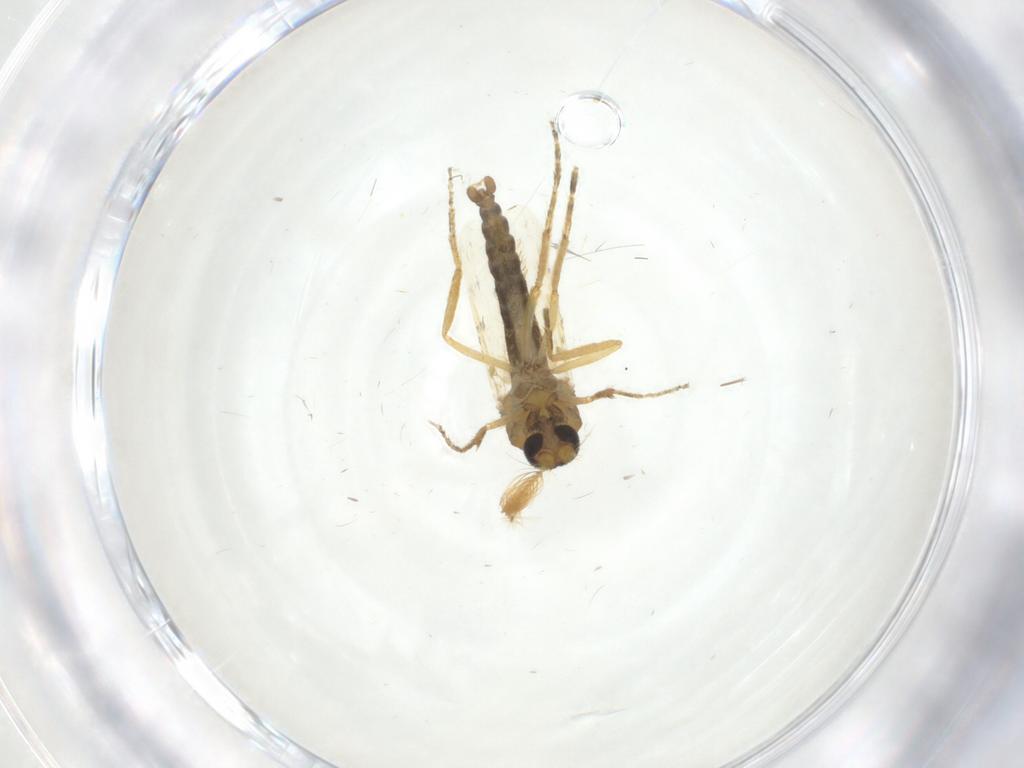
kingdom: Animalia
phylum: Arthropoda
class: Insecta
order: Diptera
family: Ceratopogonidae
